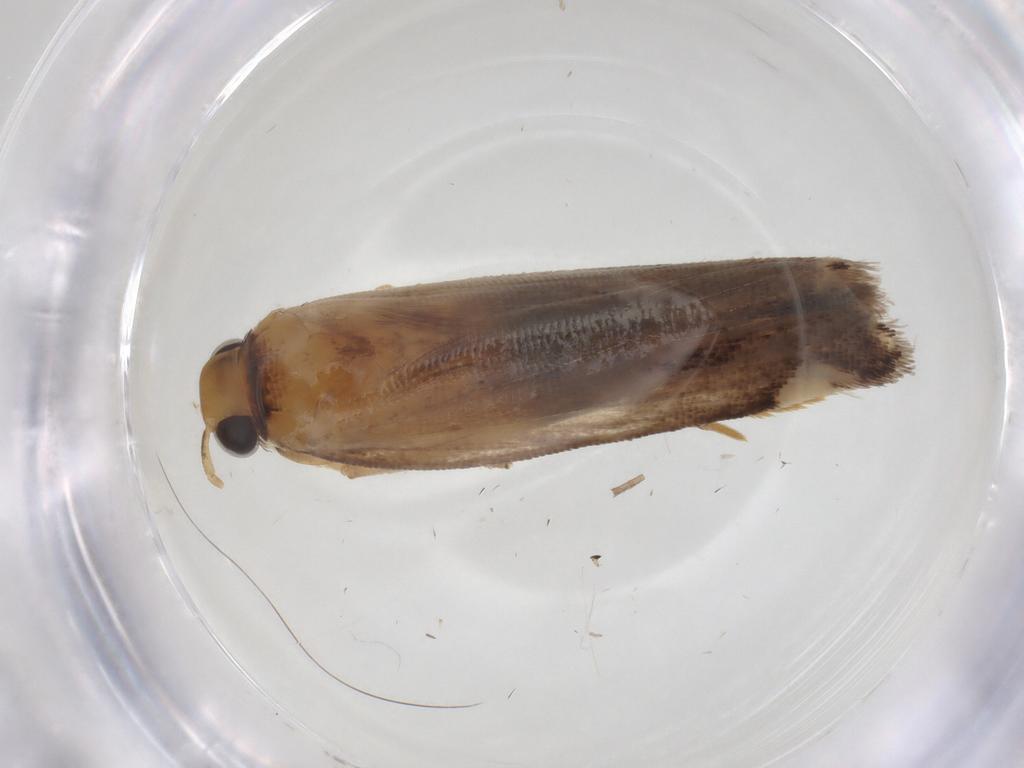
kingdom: Animalia
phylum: Arthropoda
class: Insecta
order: Lepidoptera
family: Gelechiidae
